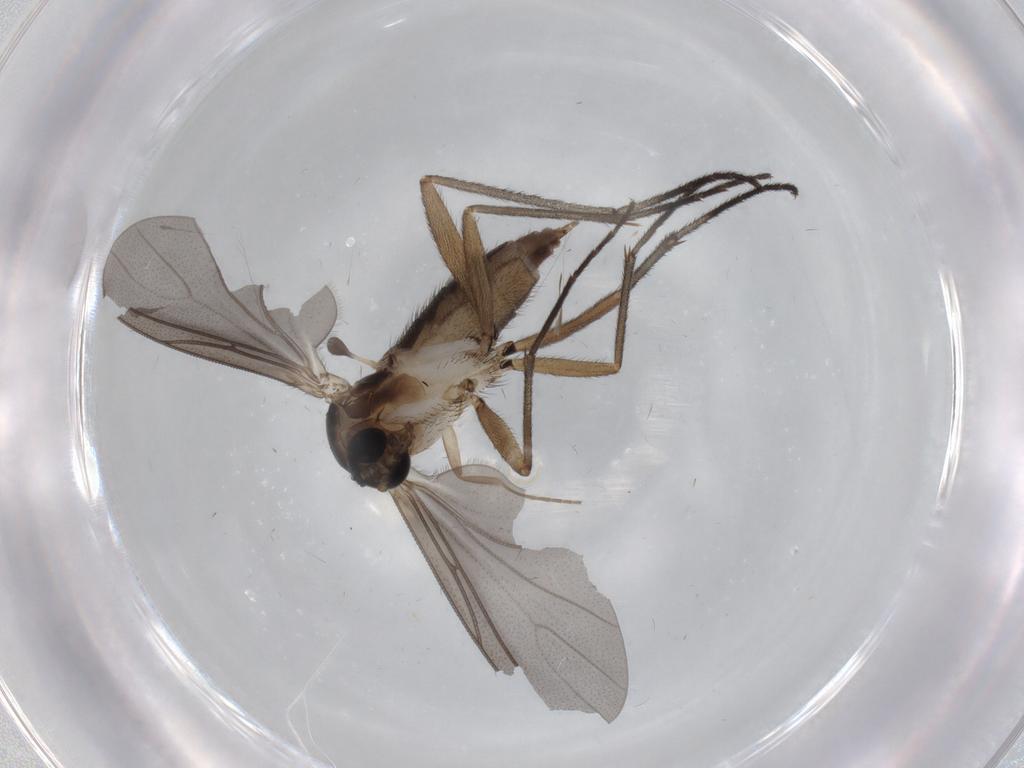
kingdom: Animalia
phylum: Arthropoda
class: Insecta
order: Diptera
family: Sciaridae
